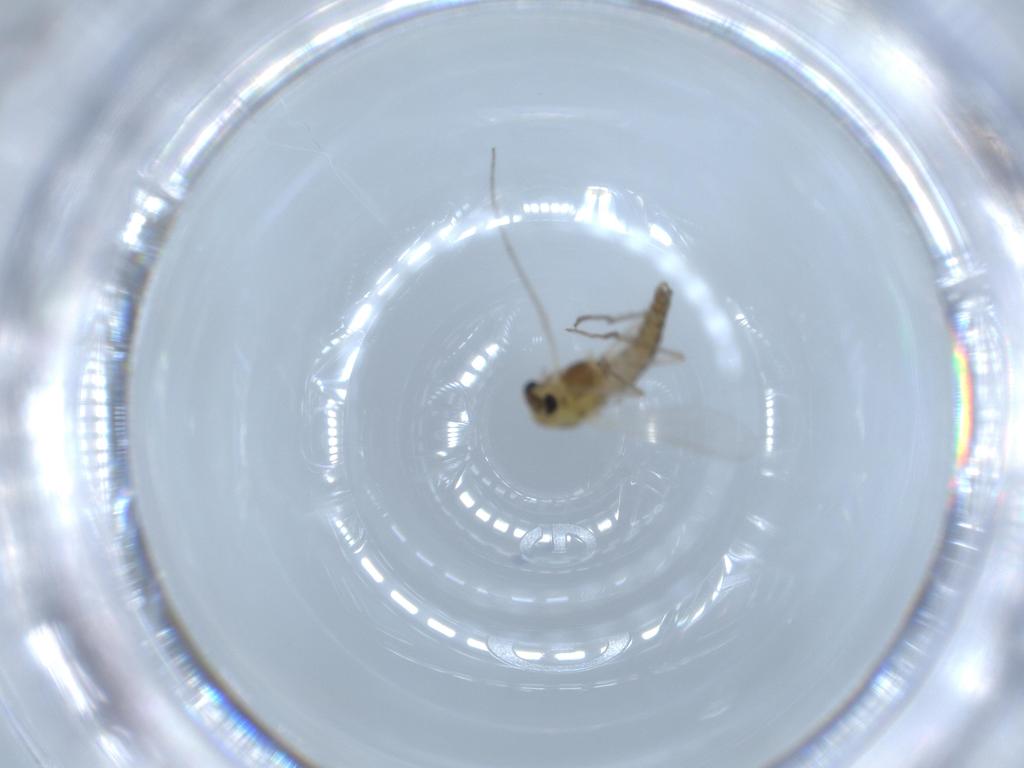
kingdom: Animalia
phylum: Arthropoda
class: Insecta
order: Diptera
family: Chironomidae
